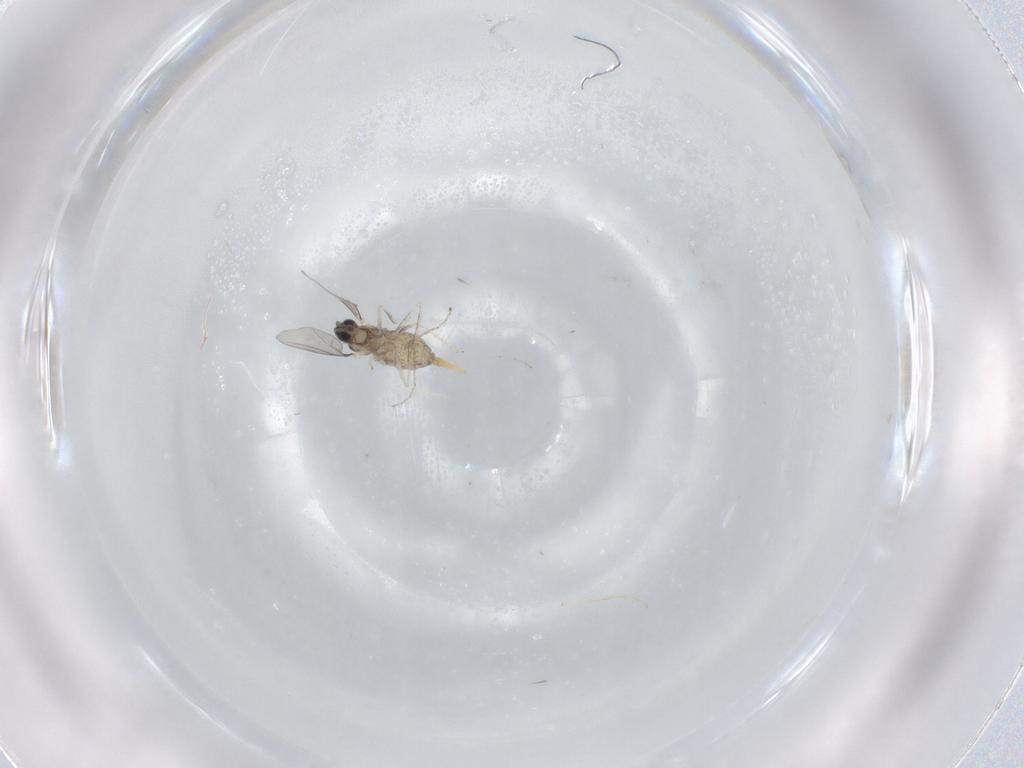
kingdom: Animalia
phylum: Arthropoda
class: Insecta
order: Diptera
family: Cecidomyiidae
